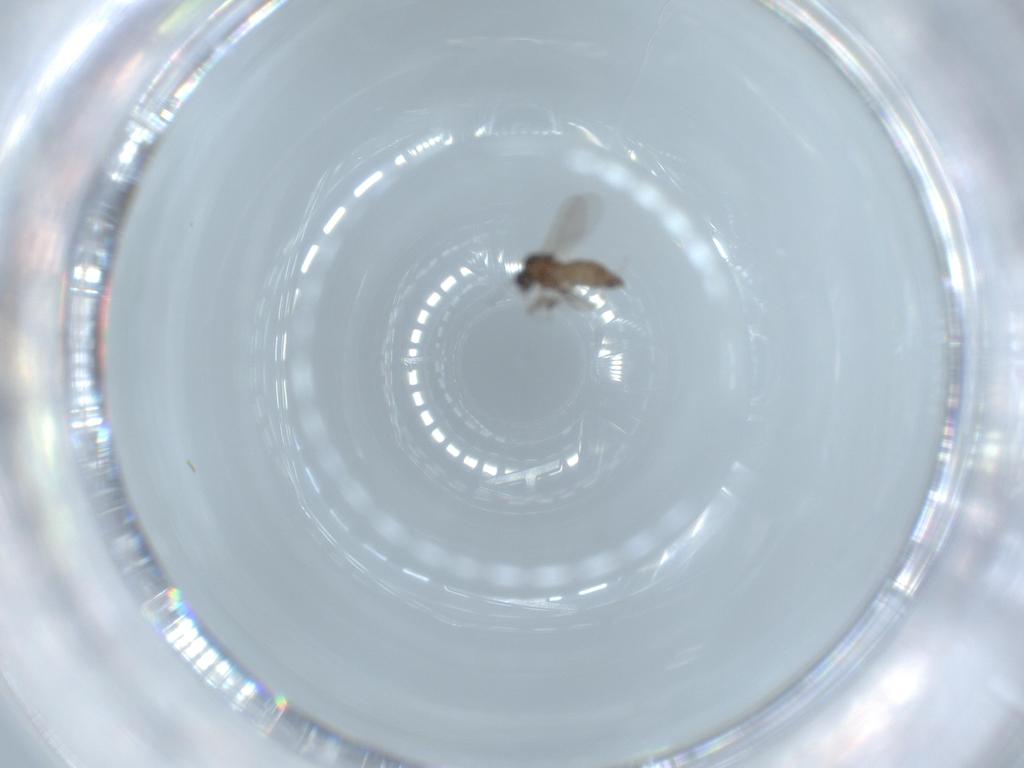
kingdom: Animalia
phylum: Arthropoda
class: Insecta
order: Diptera
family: Ceratopogonidae
